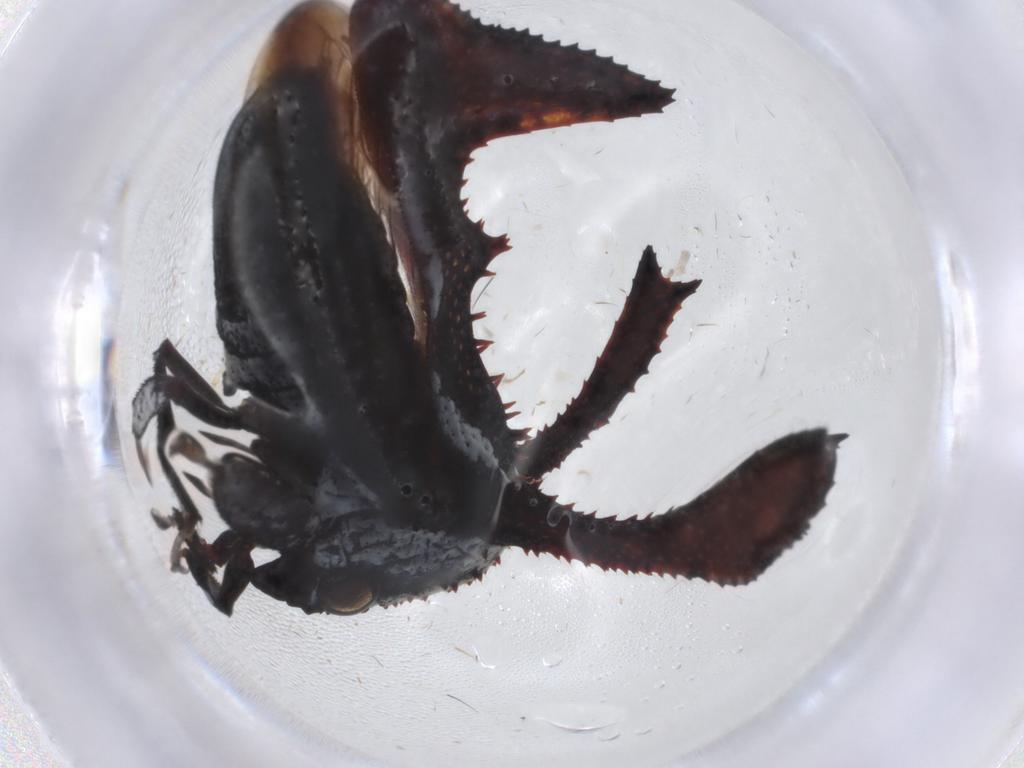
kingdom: Animalia
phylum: Arthropoda
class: Insecta
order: Hemiptera
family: Membracidae
